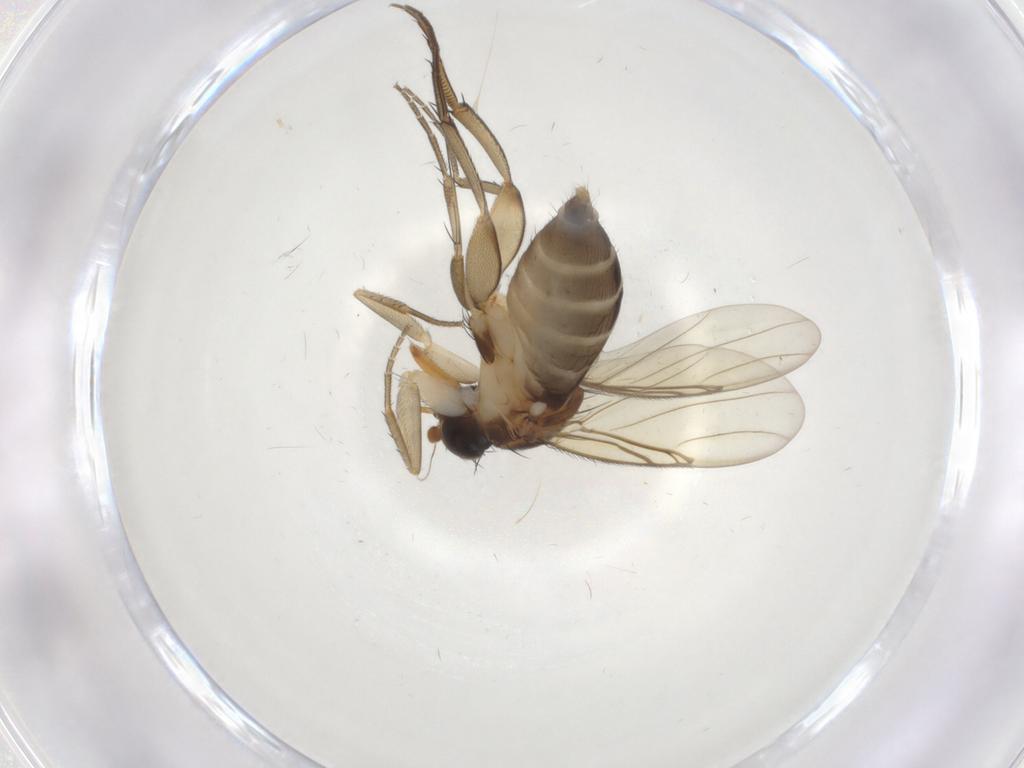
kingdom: Animalia
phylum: Arthropoda
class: Insecta
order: Diptera
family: Phoridae
